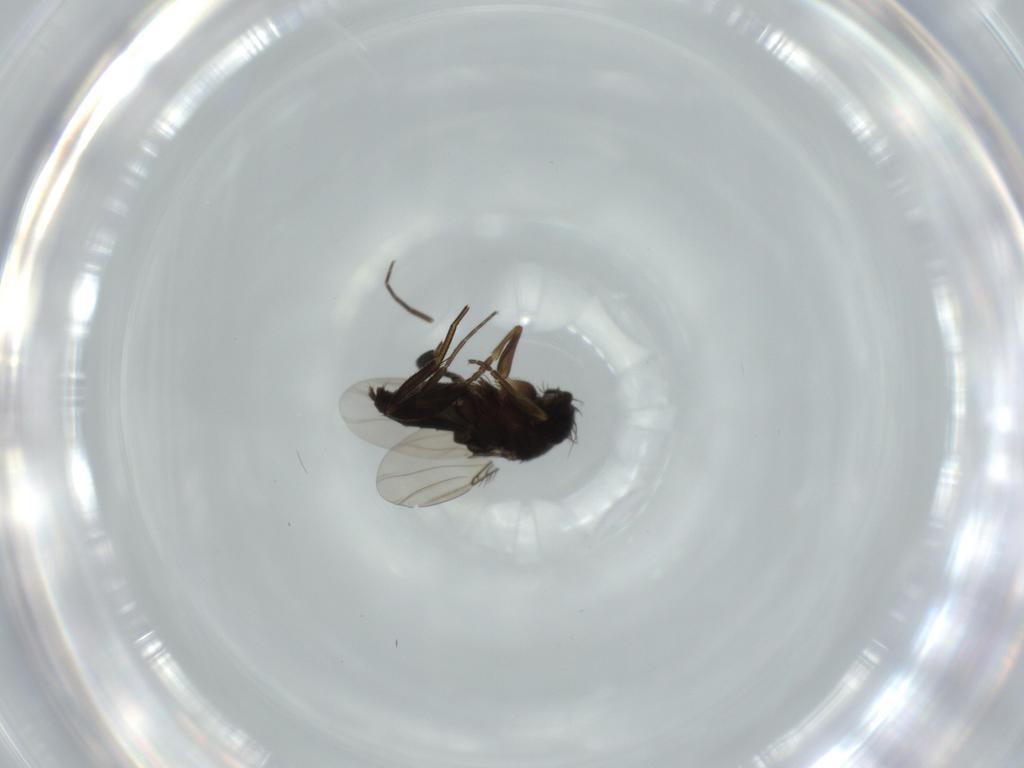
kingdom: Animalia
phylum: Arthropoda
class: Insecta
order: Diptera
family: Phoridae
